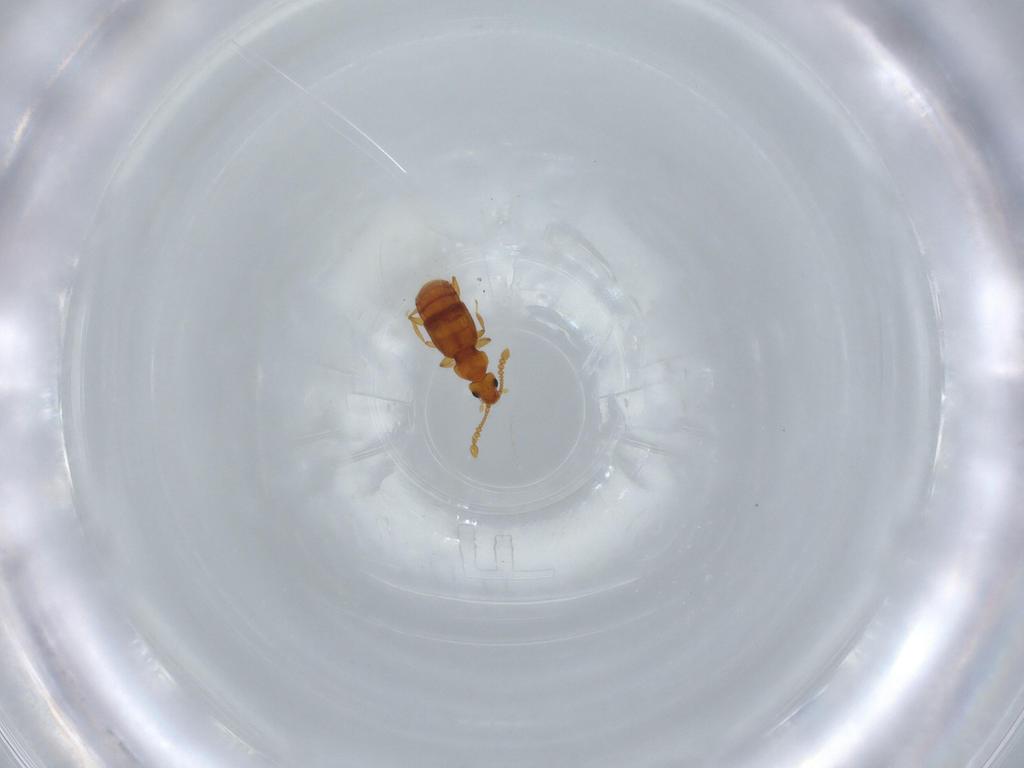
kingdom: Animalia
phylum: Arthropoda
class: Insecta
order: Coleoptera
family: Staphylinidae
